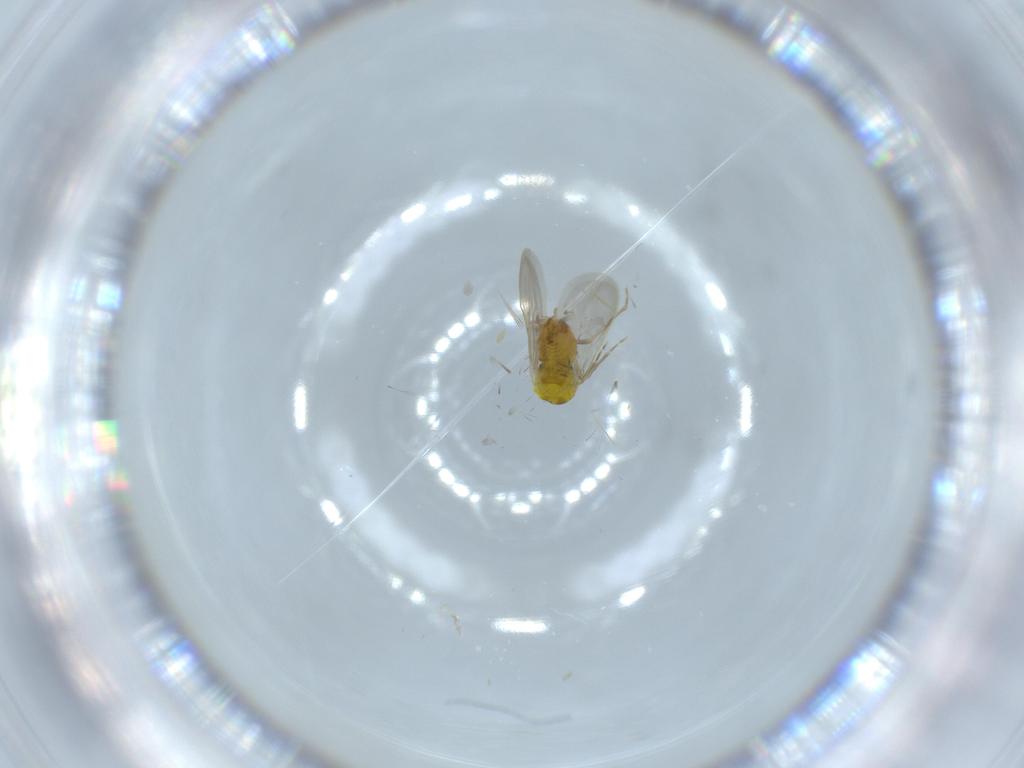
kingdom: Animalia
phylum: Arthropoda
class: Insecta
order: Hemiptera
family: Aleyrodidae
